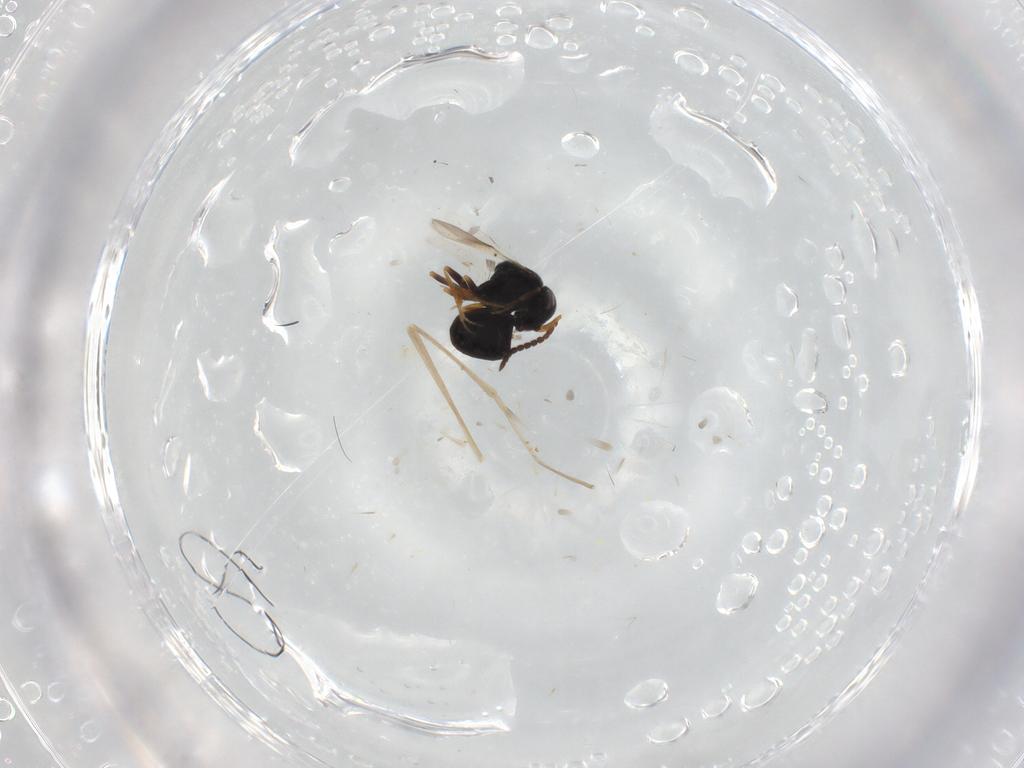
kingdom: Animalia
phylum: Arthropoda
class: Insecta
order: Hymenoptera
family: Scelionidae
